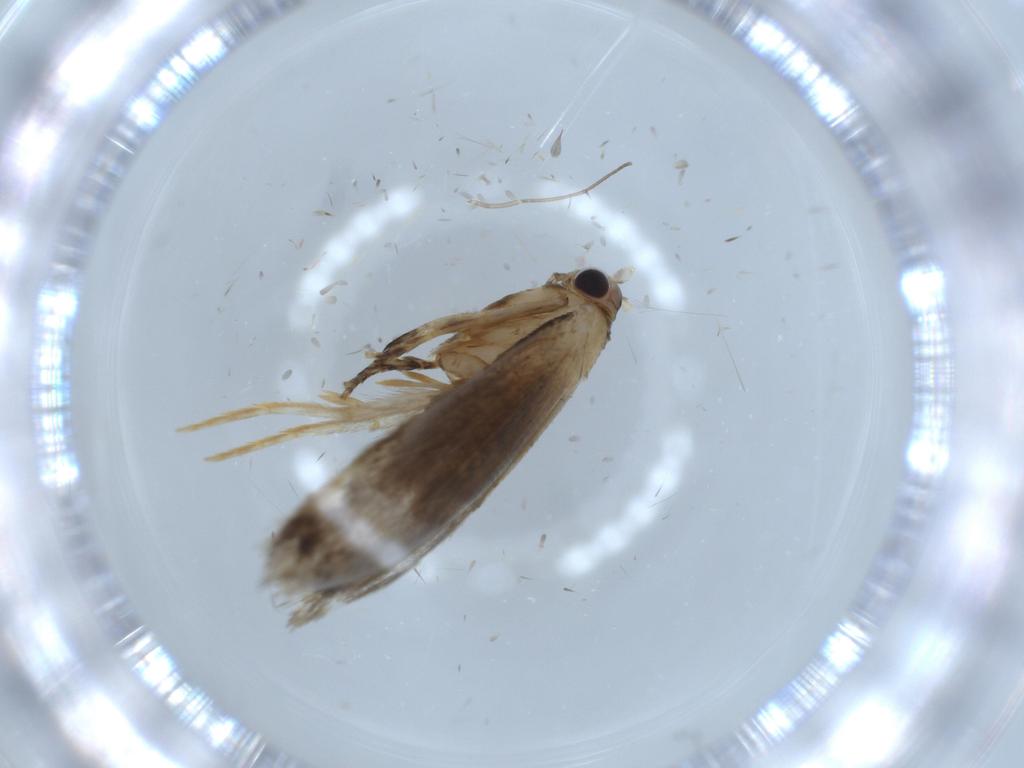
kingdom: Animalia
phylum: Arthropoda
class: Insecta
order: Lepidoptera
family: Tineidae
